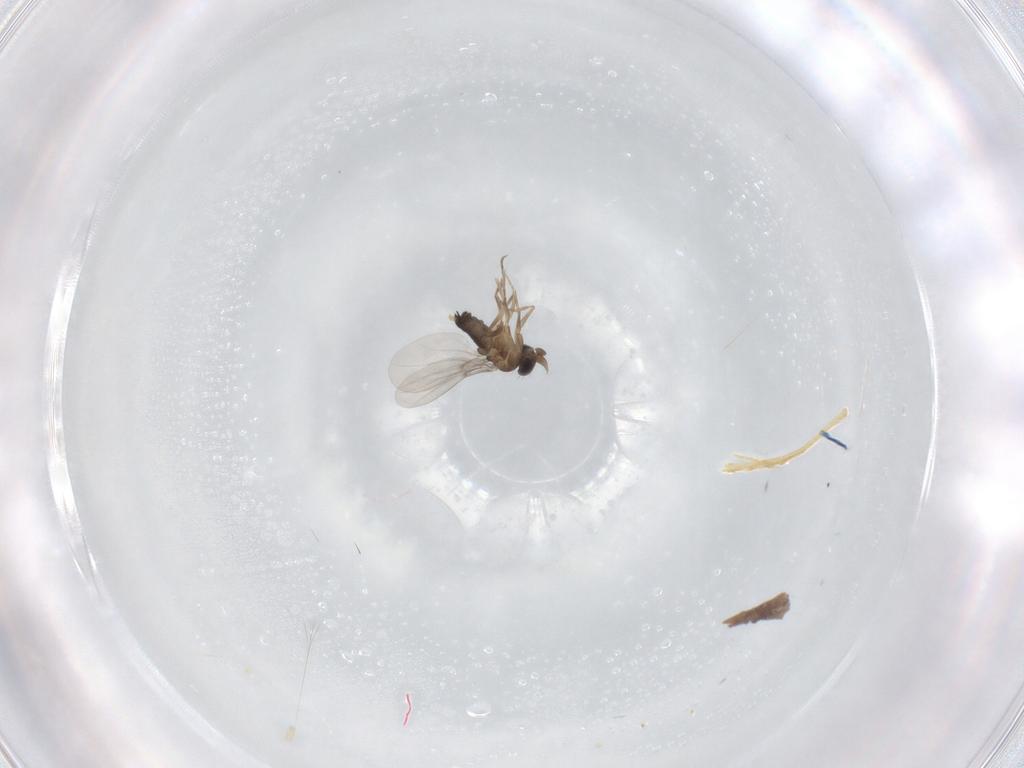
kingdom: Animalia
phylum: Arthropoda
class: Insecta
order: Diptera
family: Phoridae
